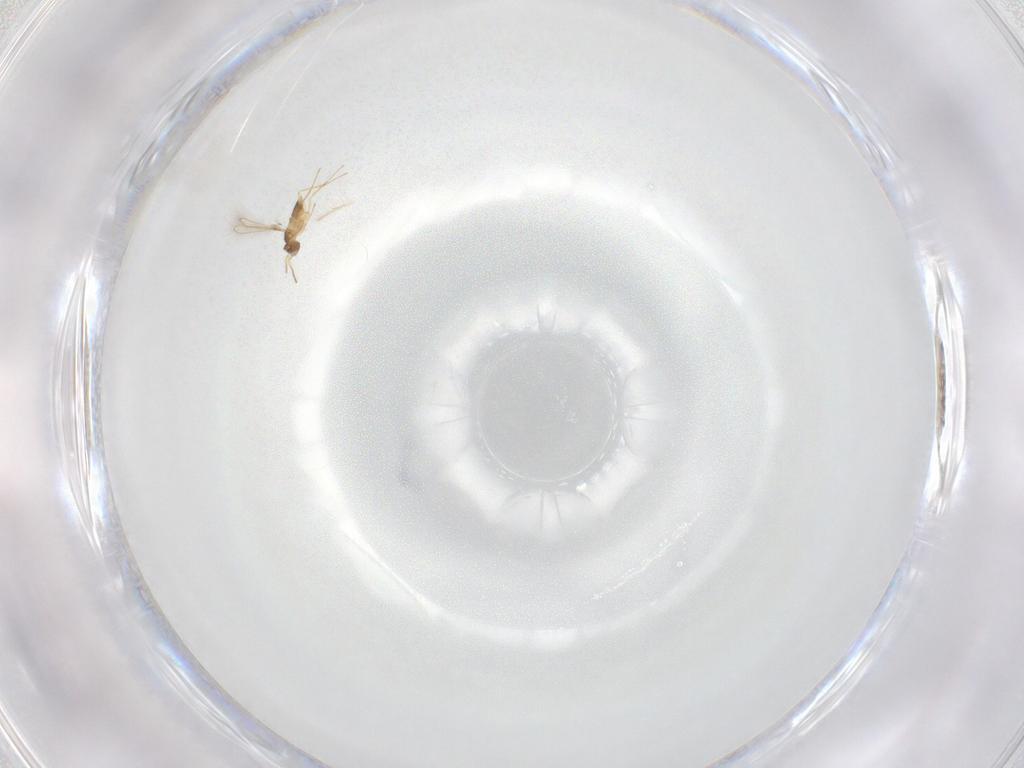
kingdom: Animalia
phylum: Arthropoda
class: Insecta
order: Hymenoptera
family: Mymaridae
